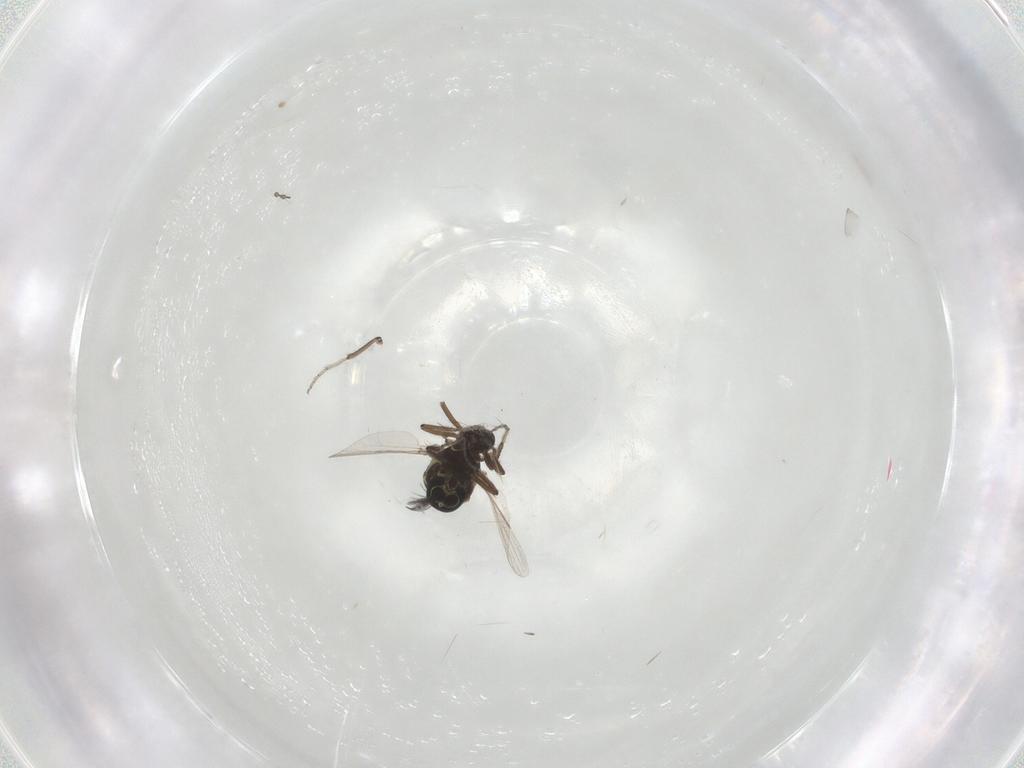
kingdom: Animalia
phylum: Arthropoda
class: Insecta
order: Diptera
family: Ceratopogonidae
